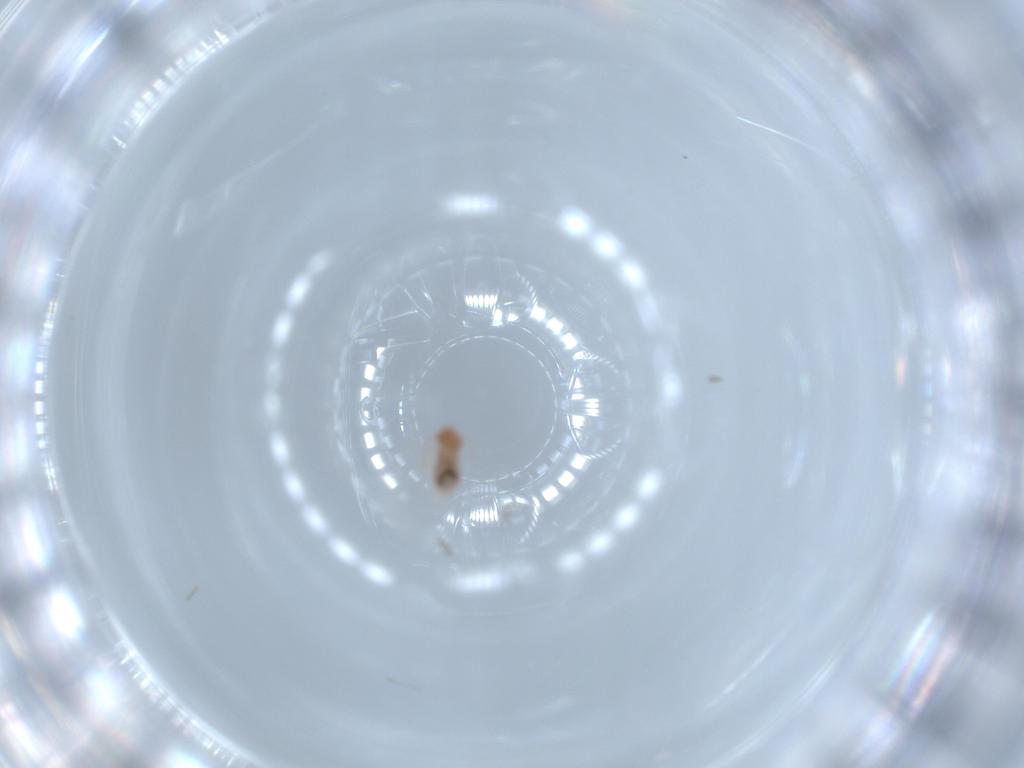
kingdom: Animalia
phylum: Arthropoda
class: Insecta
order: Psocodea
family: Archipsocidae
